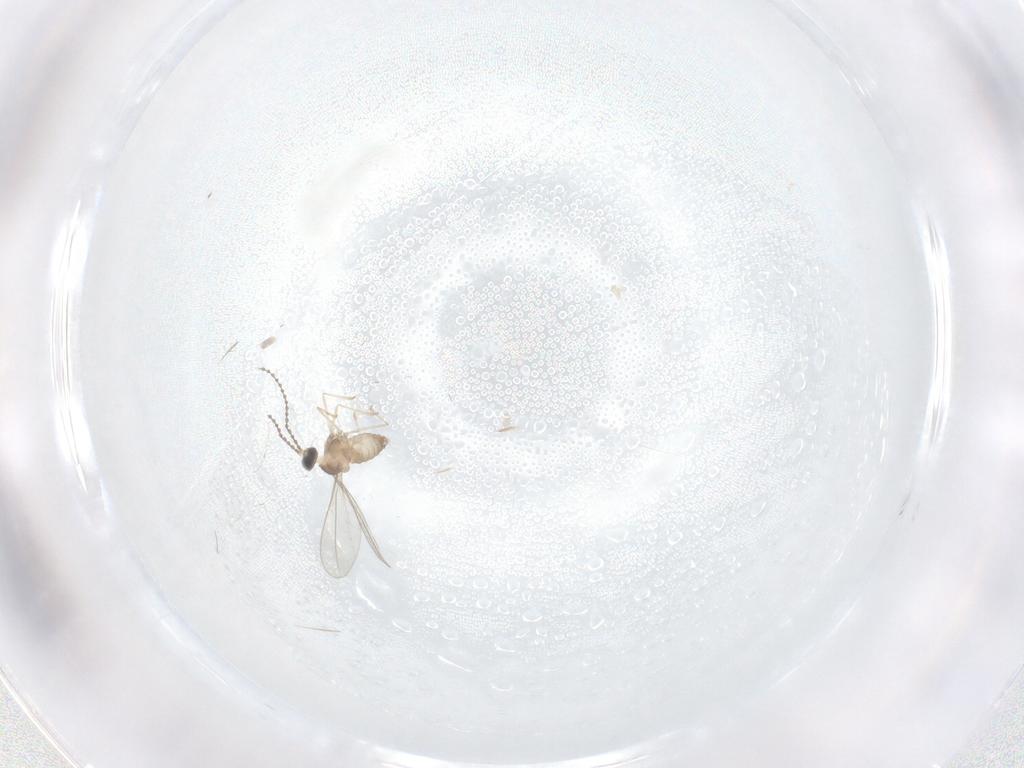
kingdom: Animalia
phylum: Arthropoda
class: Insecta
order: Diptera
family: Cecidomyiidae
